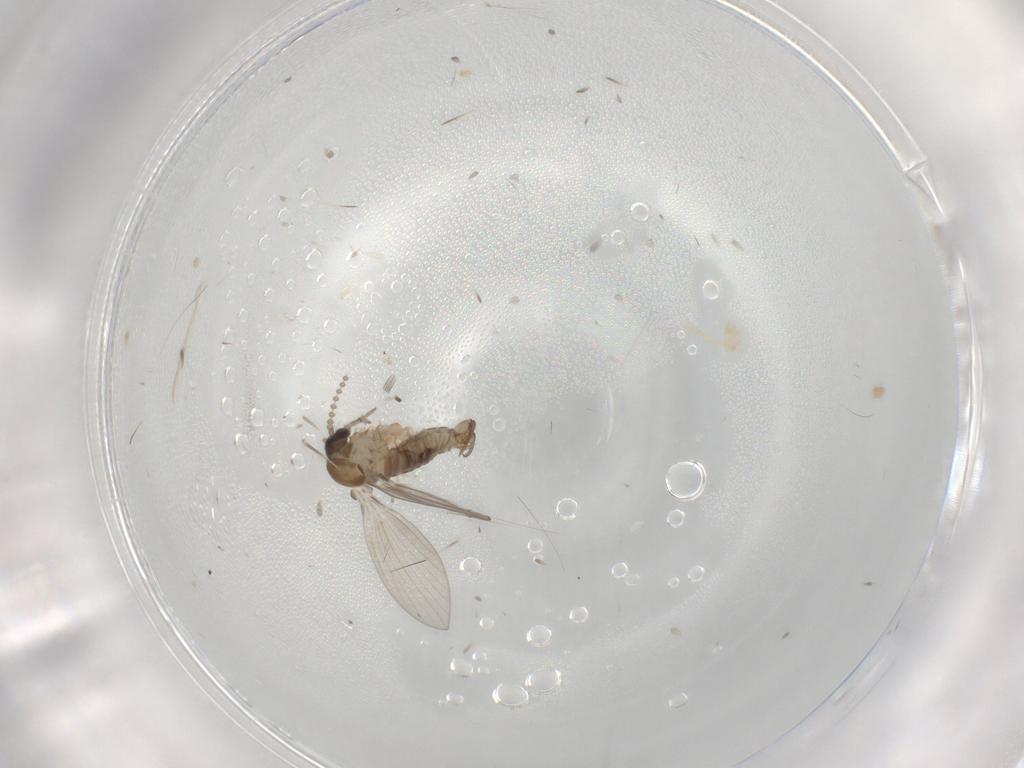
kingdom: Animalia
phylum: Arthropoda
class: Insecta
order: Diptera
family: Psychodidae
